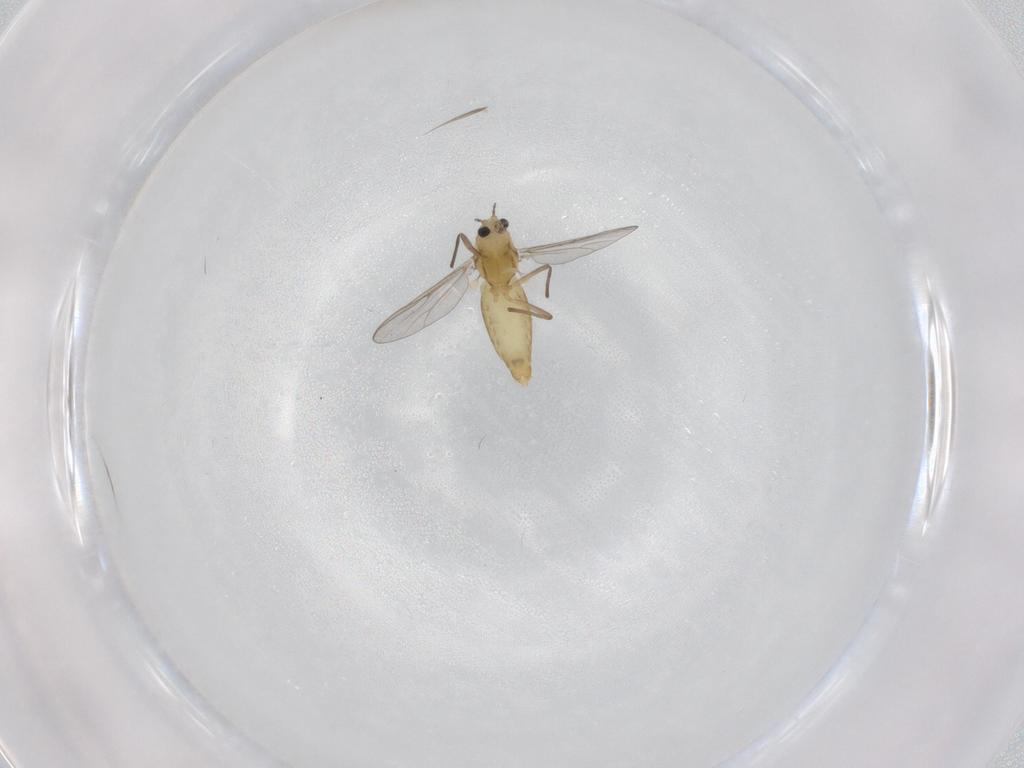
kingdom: Animalia
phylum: Arthropoda
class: Insecta
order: Diptera
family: Chironomidae
